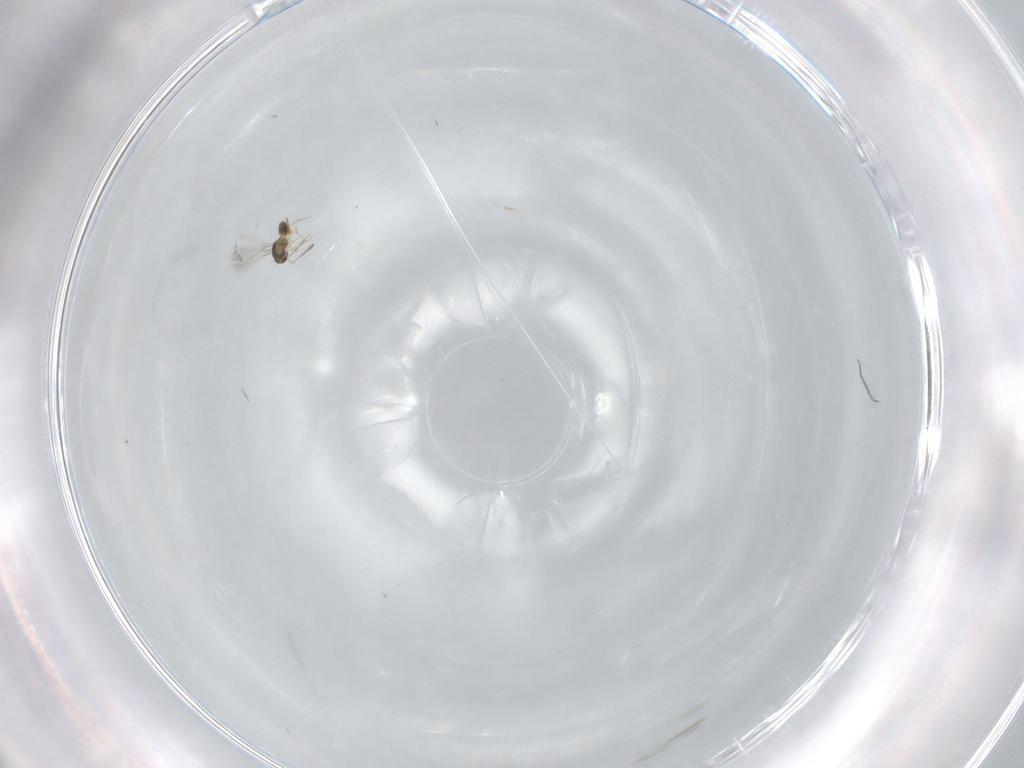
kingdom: Animalia
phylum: Arthropoda
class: Insecta
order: Hymenoptera
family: Mymaridae
